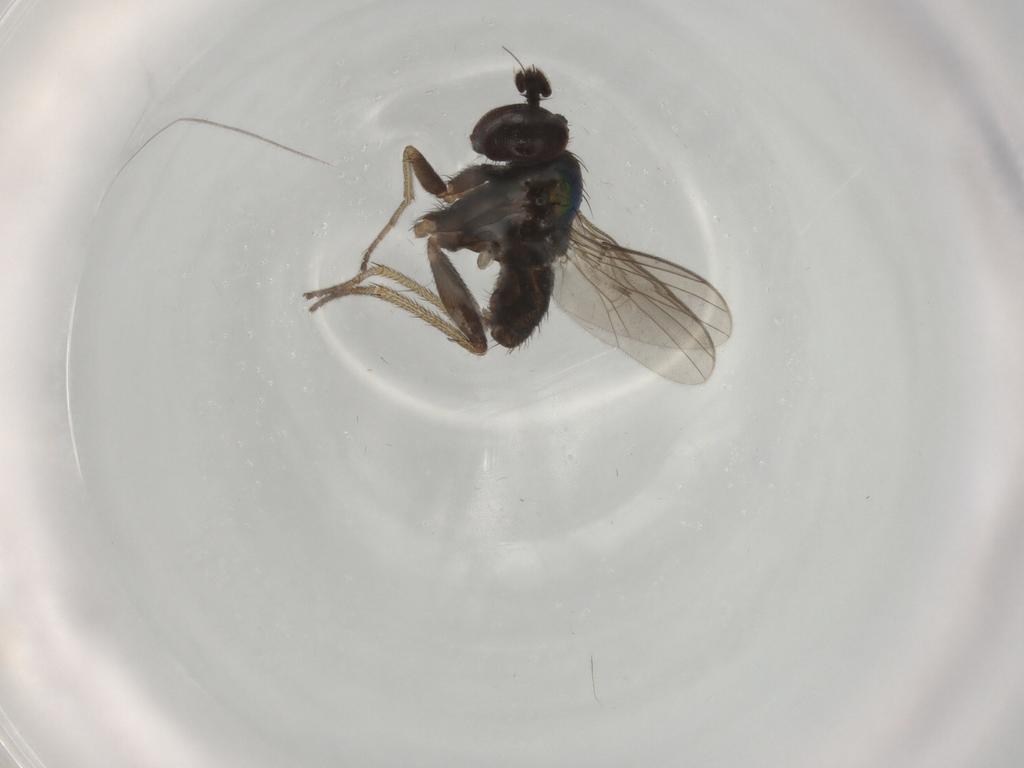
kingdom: Animalia
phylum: Arthropoda
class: Insecta
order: Diptera
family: Dolichopodidae
